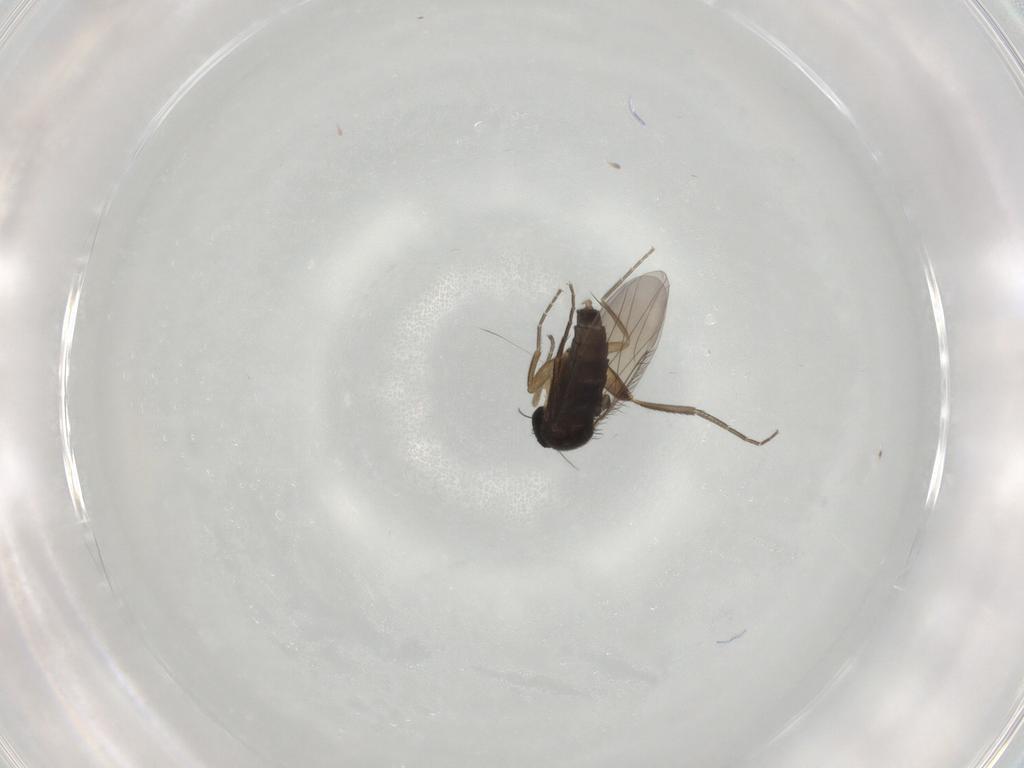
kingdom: Animalia
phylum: Arthropoda
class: Insecta
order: Diptera
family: Phoridae
